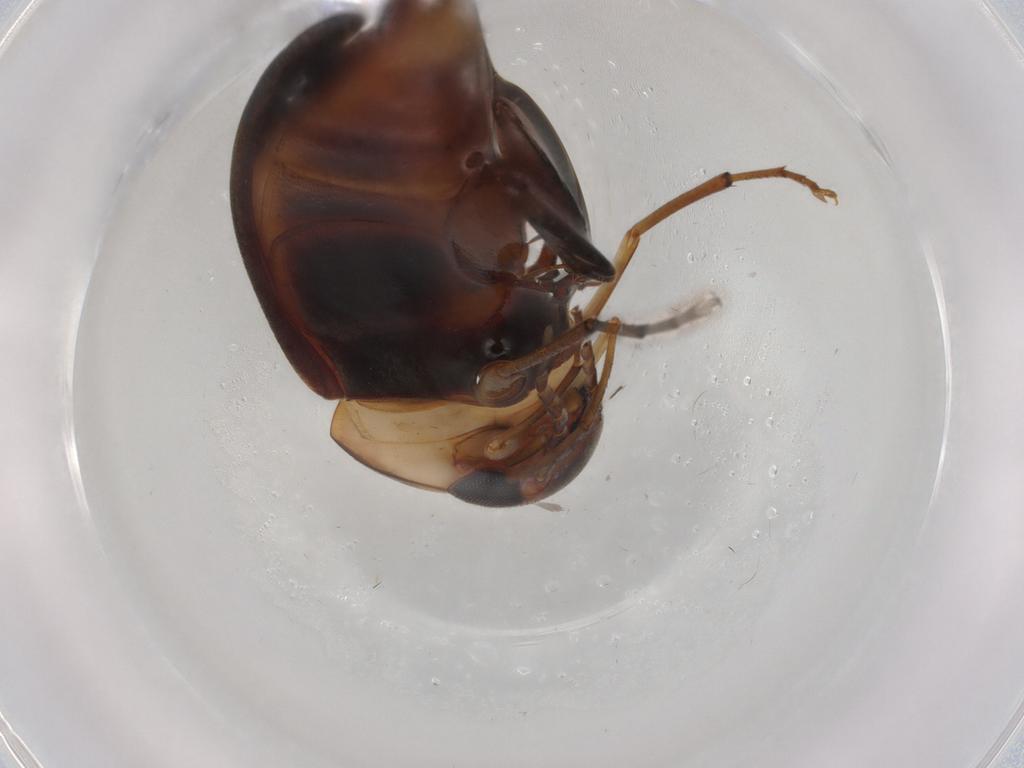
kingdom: Animalia
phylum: Arthropoda
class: Insecta
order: Coleoptera
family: Mordellidae
